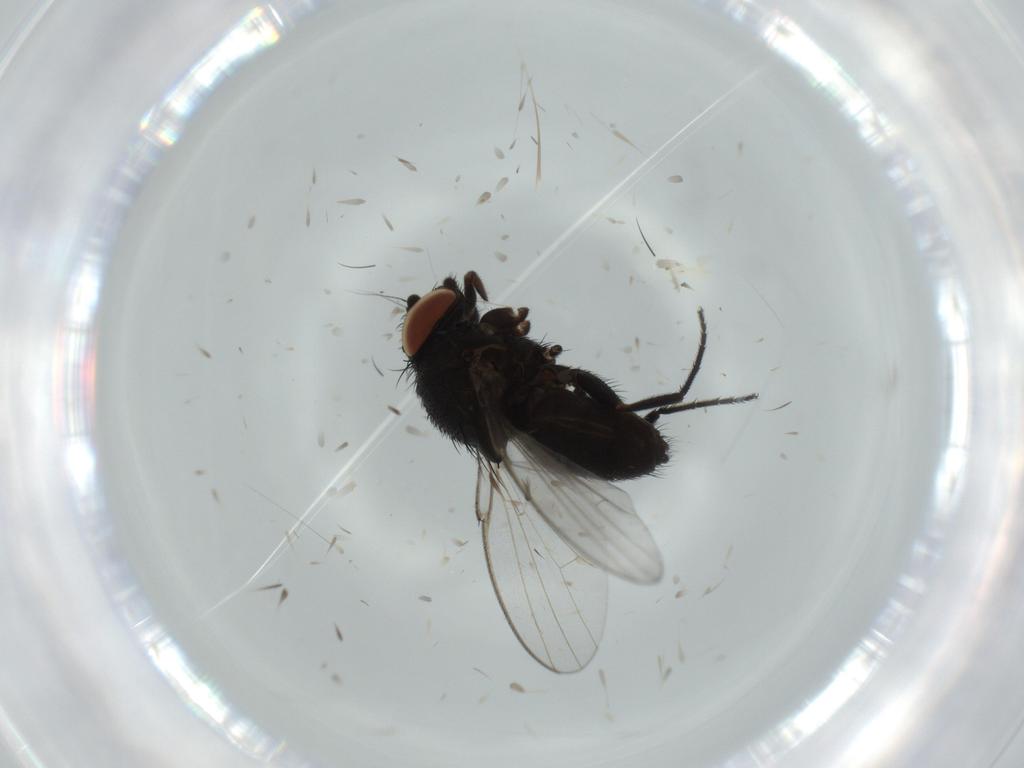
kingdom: Animalia
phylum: Arthropoda
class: Insecta
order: Diptera
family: Milichiidae
